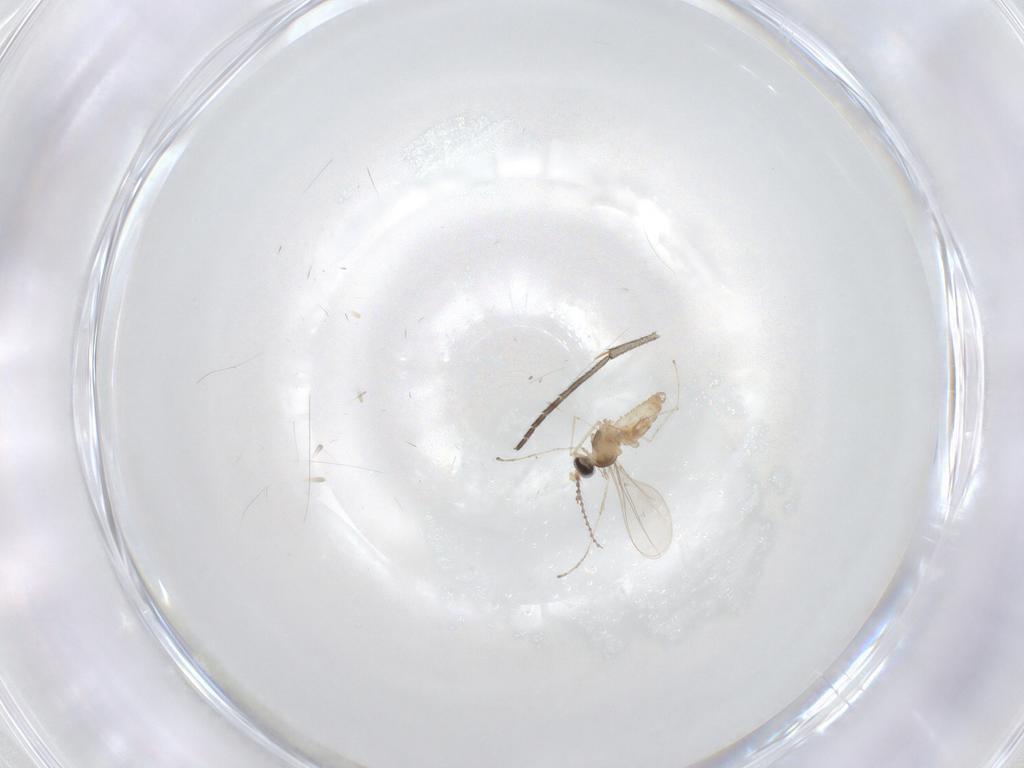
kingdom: Animalia
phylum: Arthropoda
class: Insecta
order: Diptera
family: Cecidomyiidae
